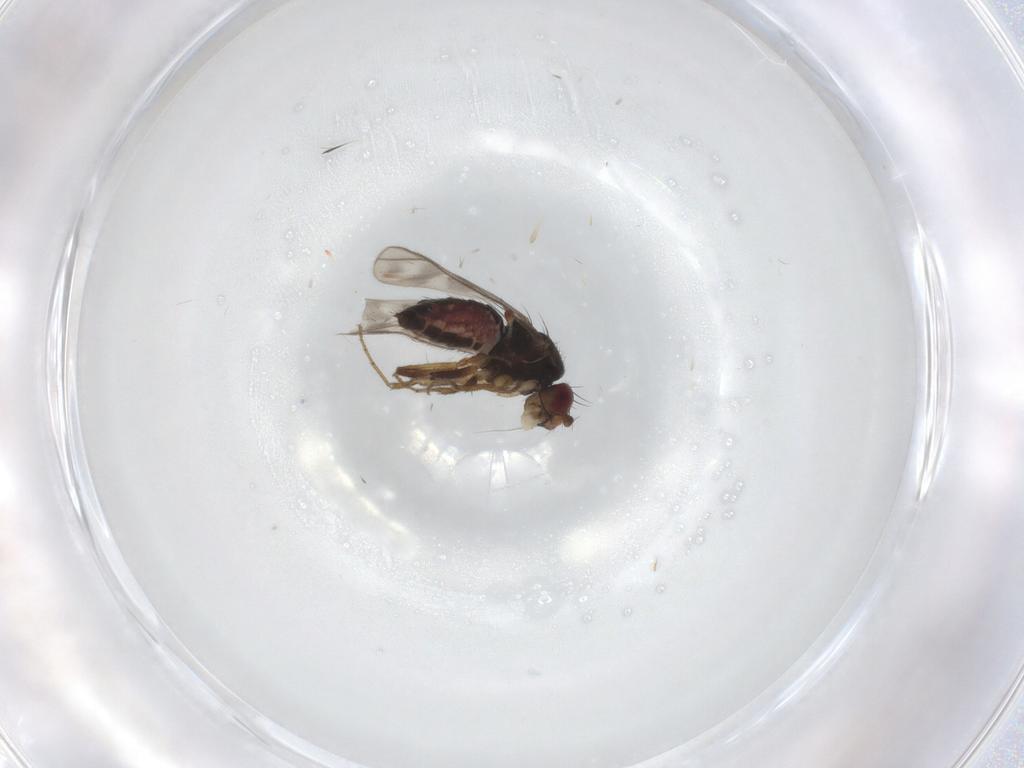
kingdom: Animalia
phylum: Arthropoda
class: Insecta
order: Diptera
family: Sphaeroceridae
